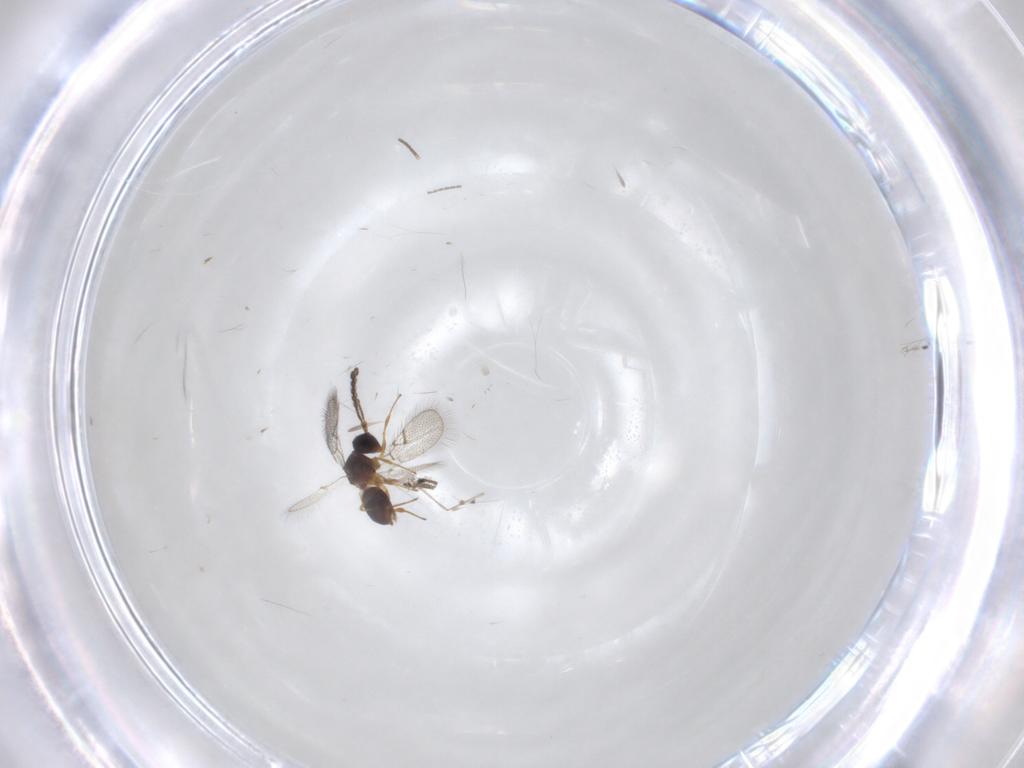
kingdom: Animalia
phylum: Arthropoda
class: Insecta
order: Hymenoptera
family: Figitidae
